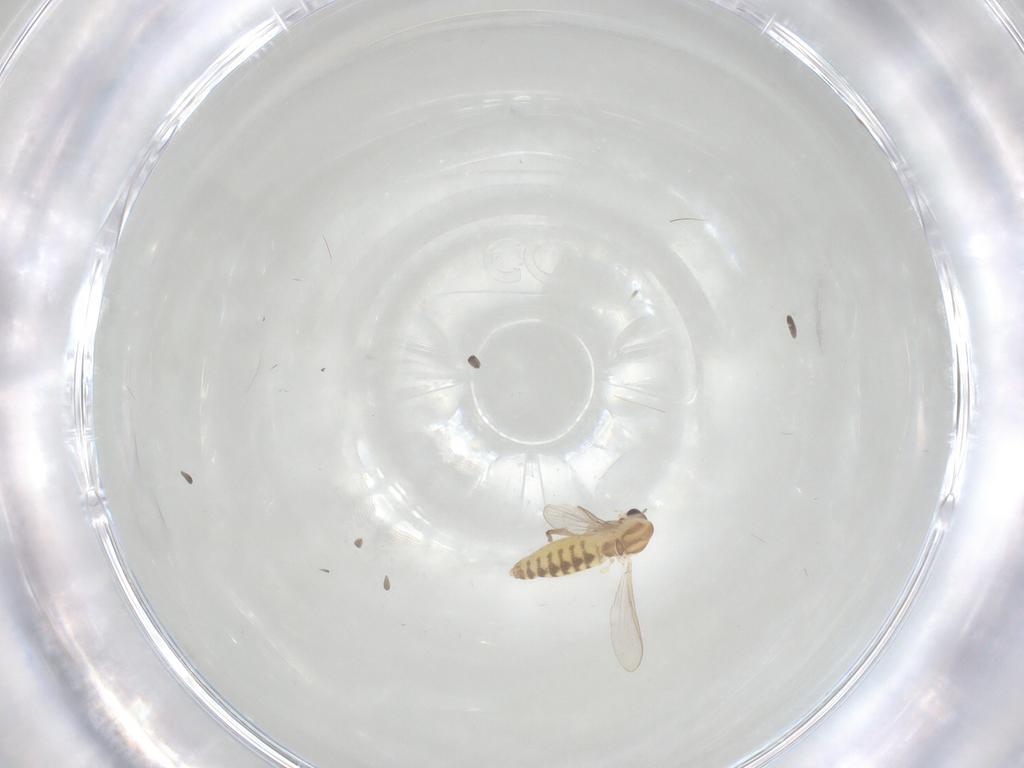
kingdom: Animalia
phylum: Arthropoda
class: Insecta
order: Diptera
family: Chironomidae
